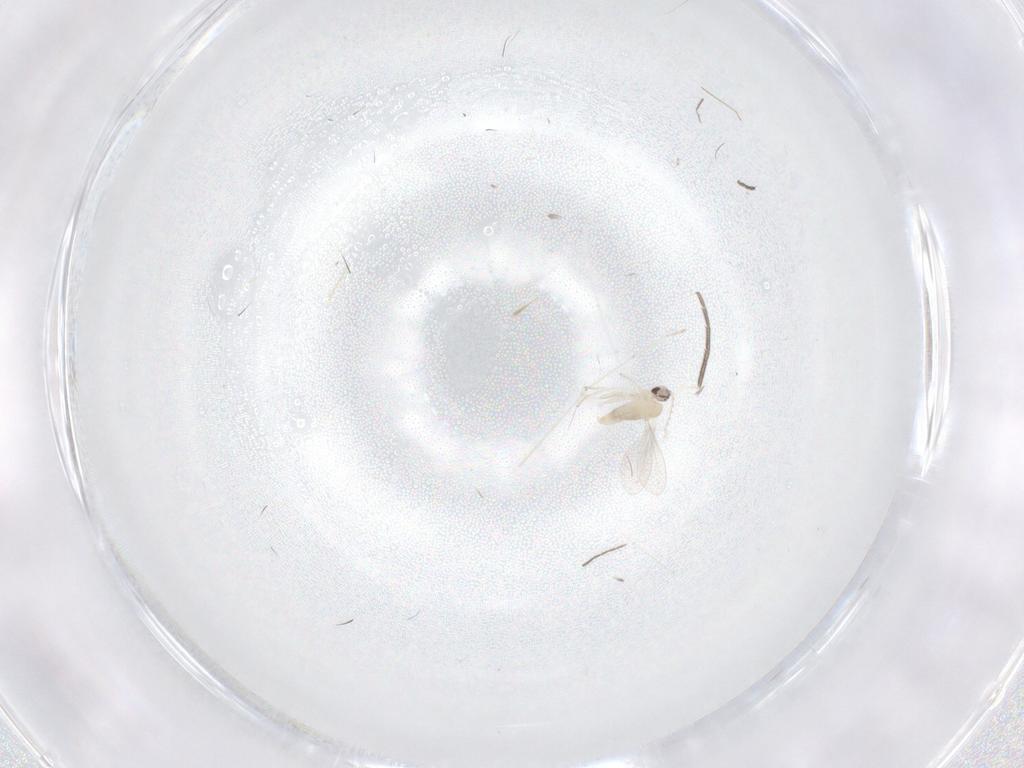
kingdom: Animalia
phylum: Arthropoda
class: Insecta
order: Diptera
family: Cecidomyiidae
